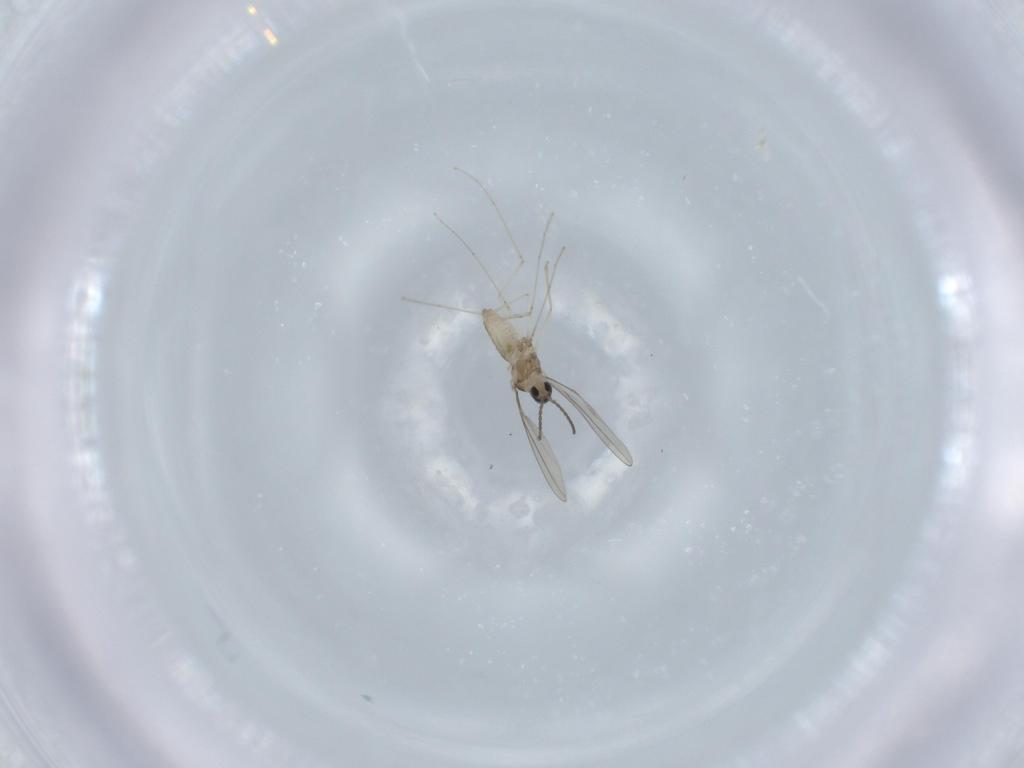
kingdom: Animalia
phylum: Arthropoda
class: Insecta
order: Diptera
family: Cecidomyiidae
